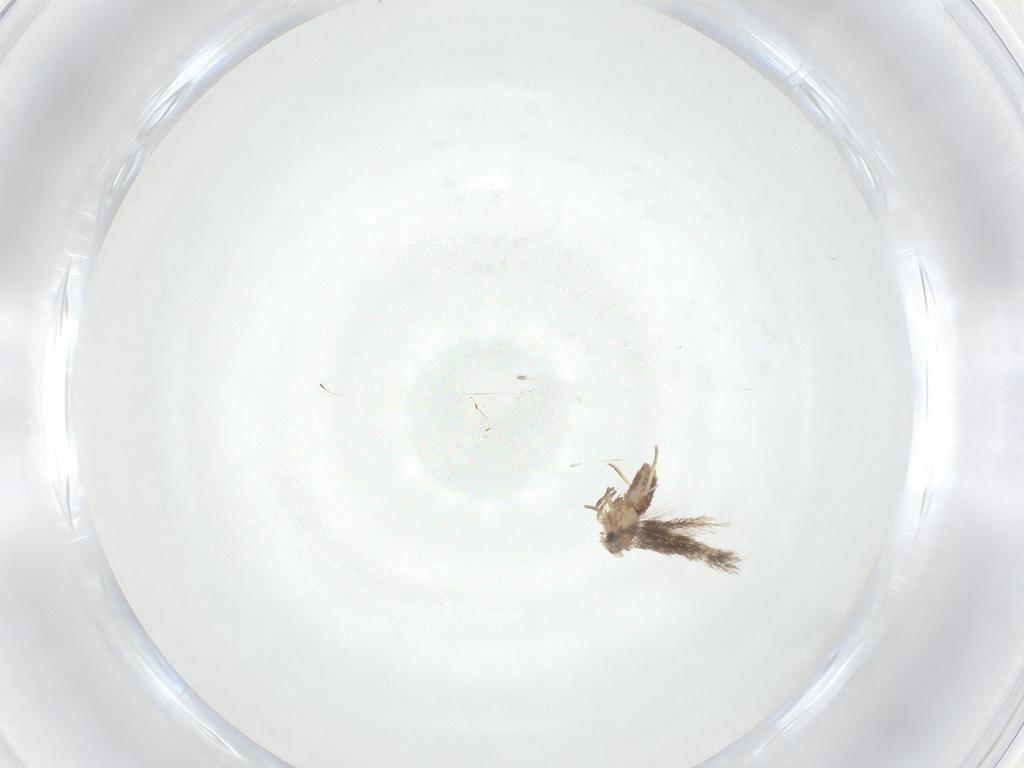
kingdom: Animalia
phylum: Arthropoda
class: Insecta
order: Lepidoptera
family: Nepticulidae
